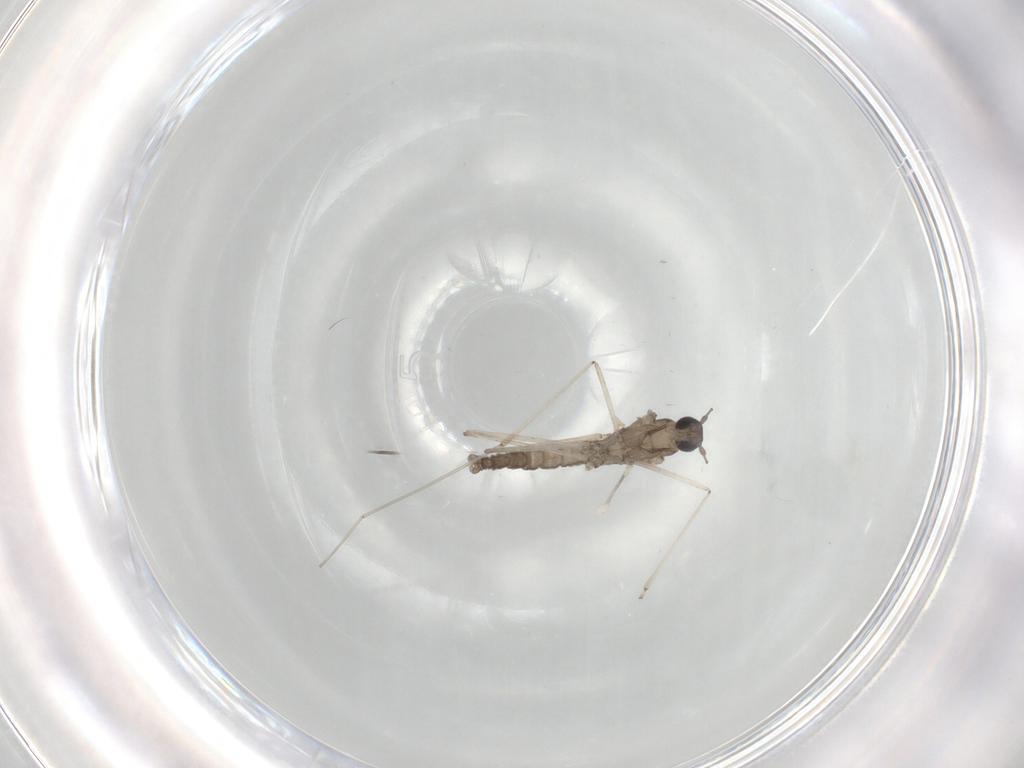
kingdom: Animalia
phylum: Arthropoda
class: Insecta
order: Diptera
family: Sciaridae
